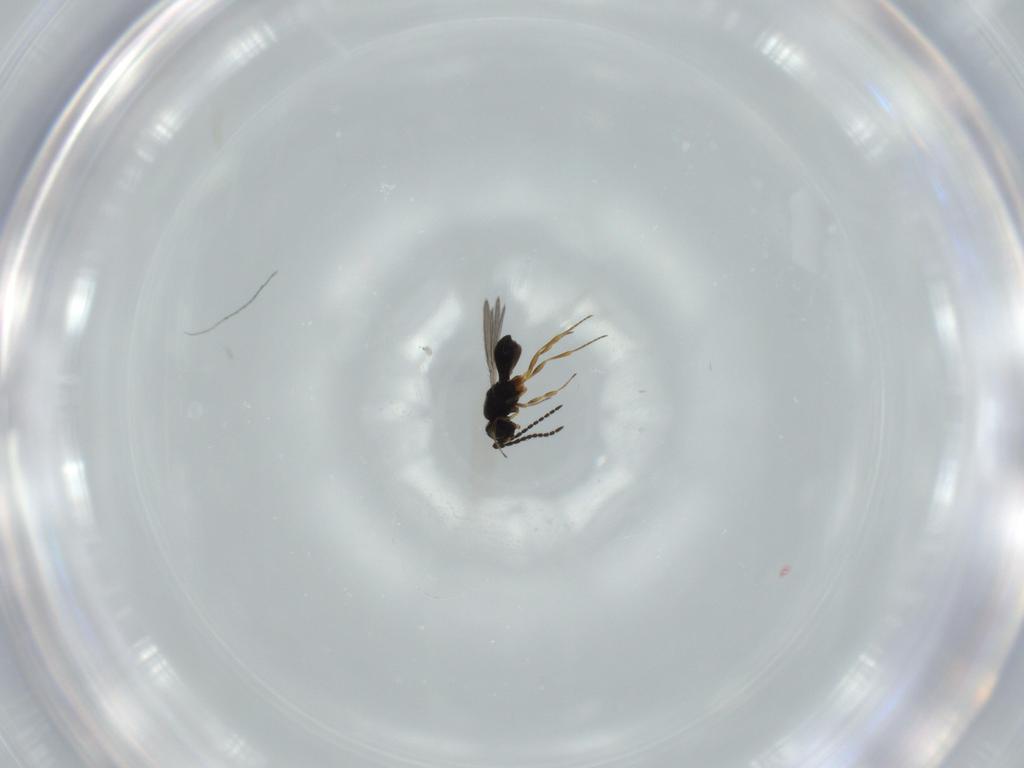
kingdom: Animalia
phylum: Arthropoda
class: Insecta
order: Hymenoptera
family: Scelionidae
